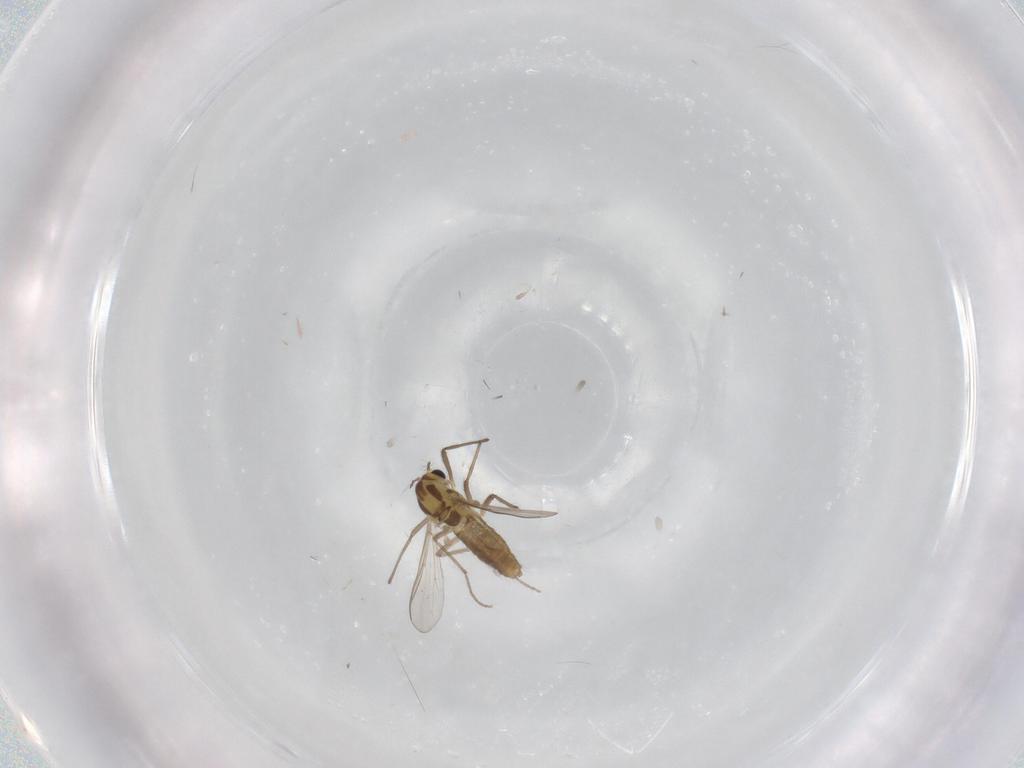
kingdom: Animalia
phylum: Arthropoda
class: Insecta
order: Diptera
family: Chironomidae
